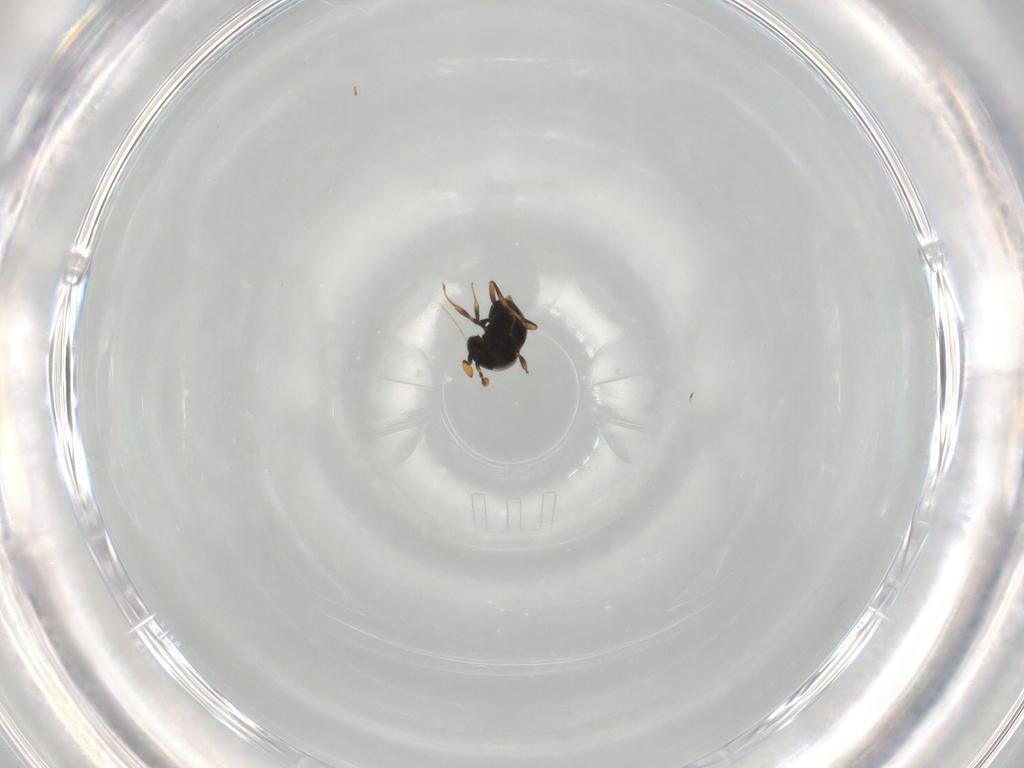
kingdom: Animalia
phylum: Arthropoda
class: Insecta
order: Hymenoptera
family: Scelionidae
